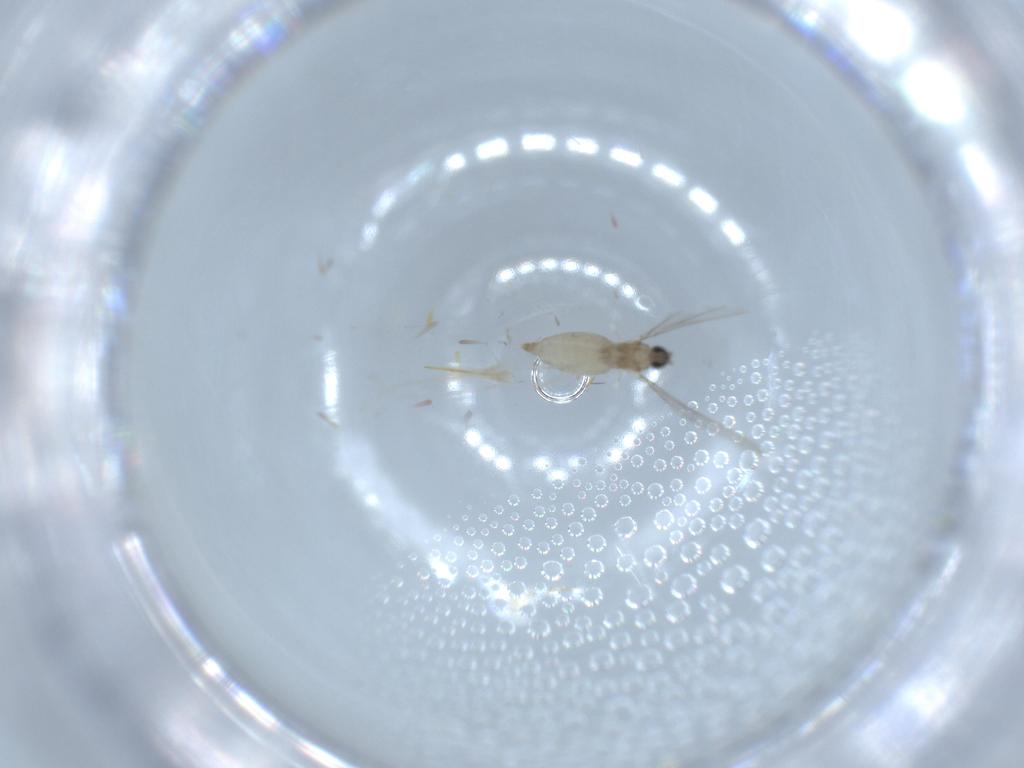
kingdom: Animalia
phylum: Arthropoda
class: Insecta
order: Diptera
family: Cecidomyiidae
